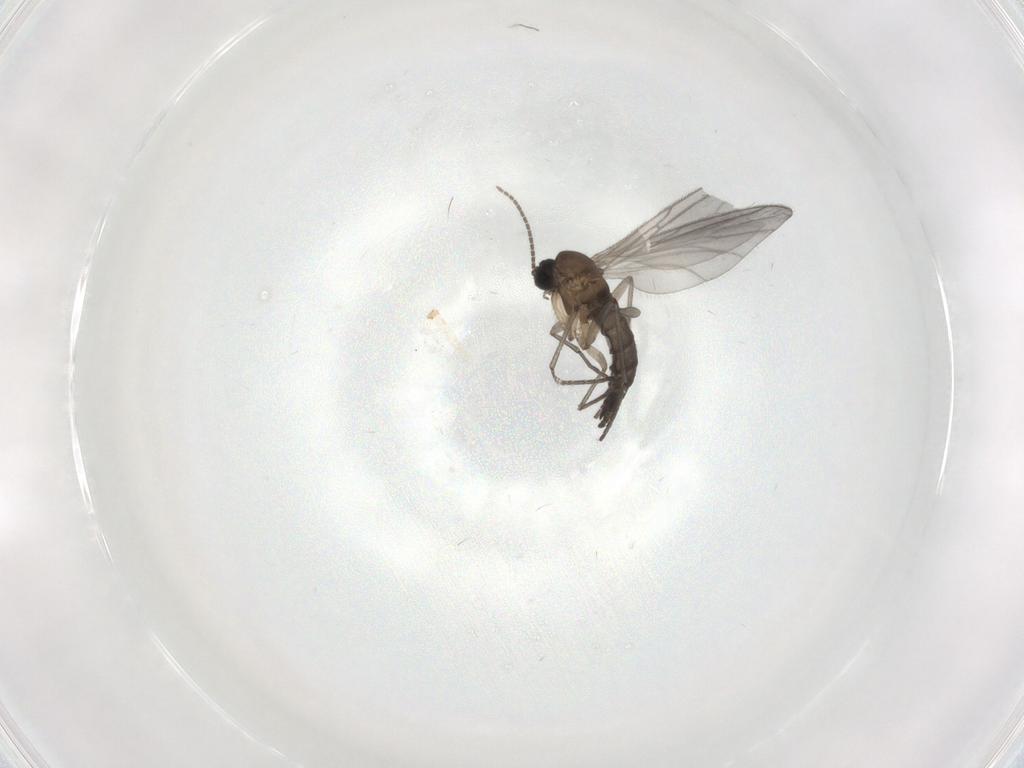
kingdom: Animalia
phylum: Arthropoda
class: Insecta
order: Diptera
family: Sciaridae
